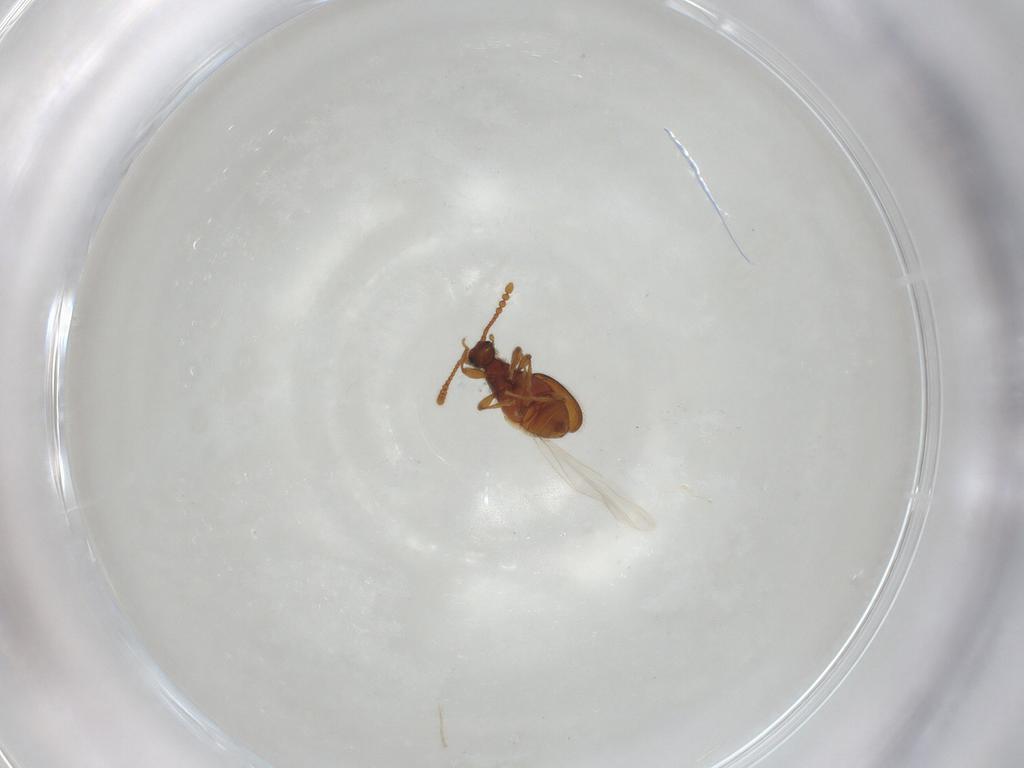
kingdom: Animalia
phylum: Arthropoda
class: Insecta
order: Coleoptera
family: Staphylinidae
